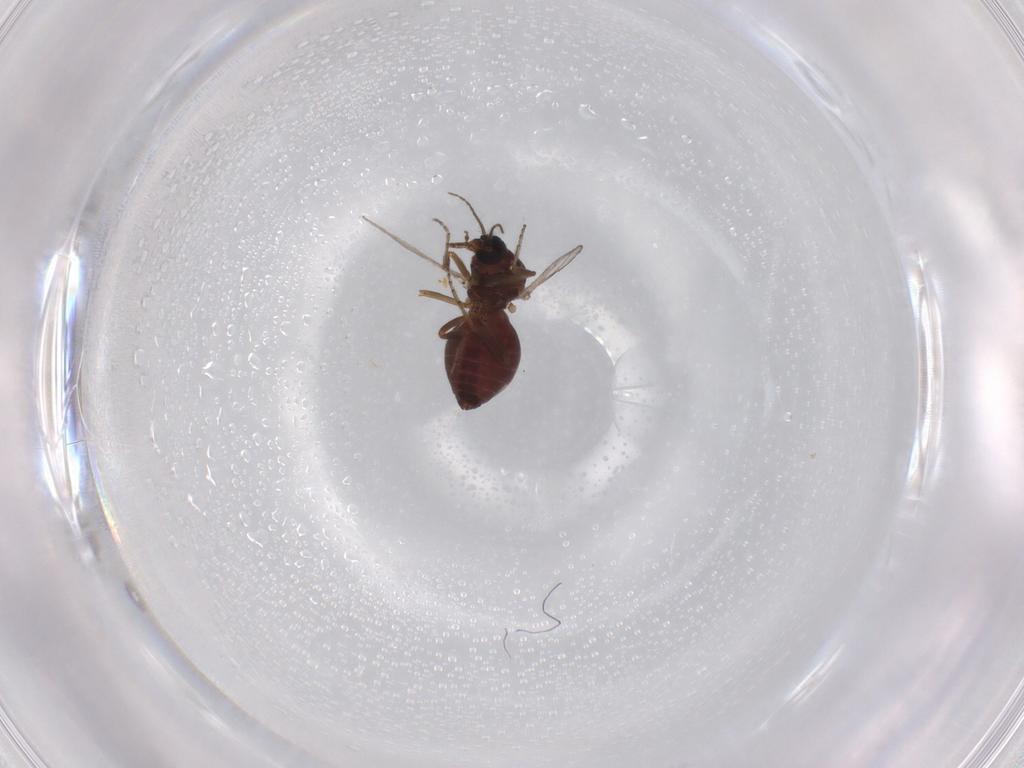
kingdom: Animalia
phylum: Arthropoda
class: Insecta
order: Diptera
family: Ceratopogonidae
